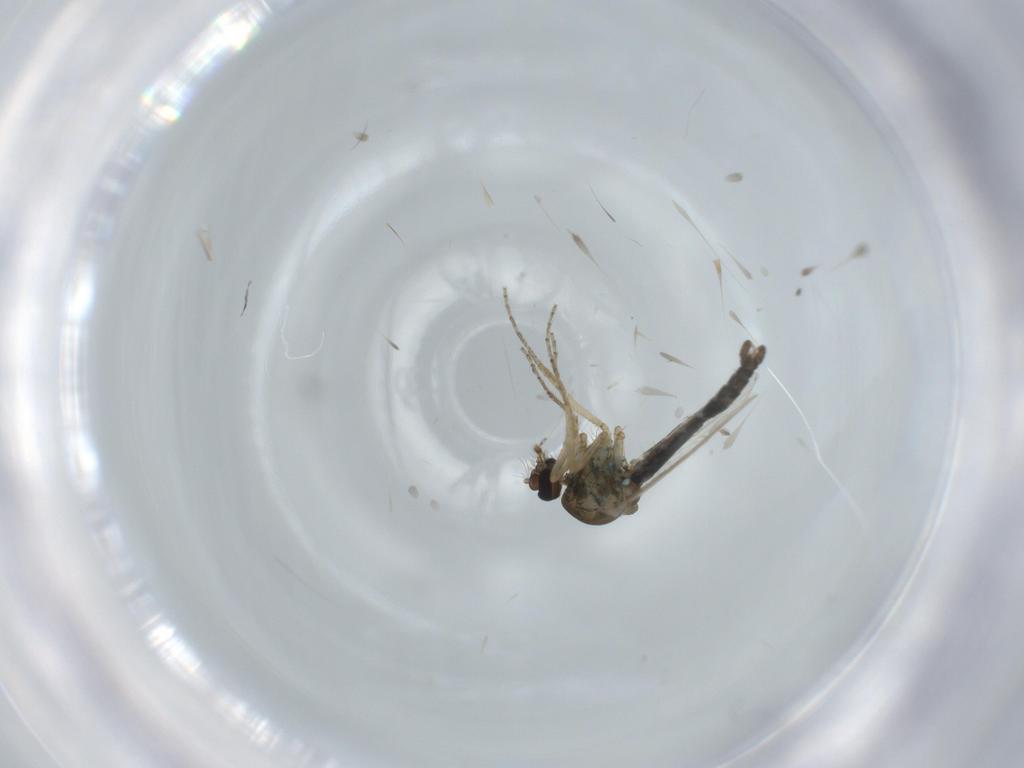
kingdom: Animalia
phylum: Arthropoda
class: Insecta
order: Diptera
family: Ceratopogonidae
